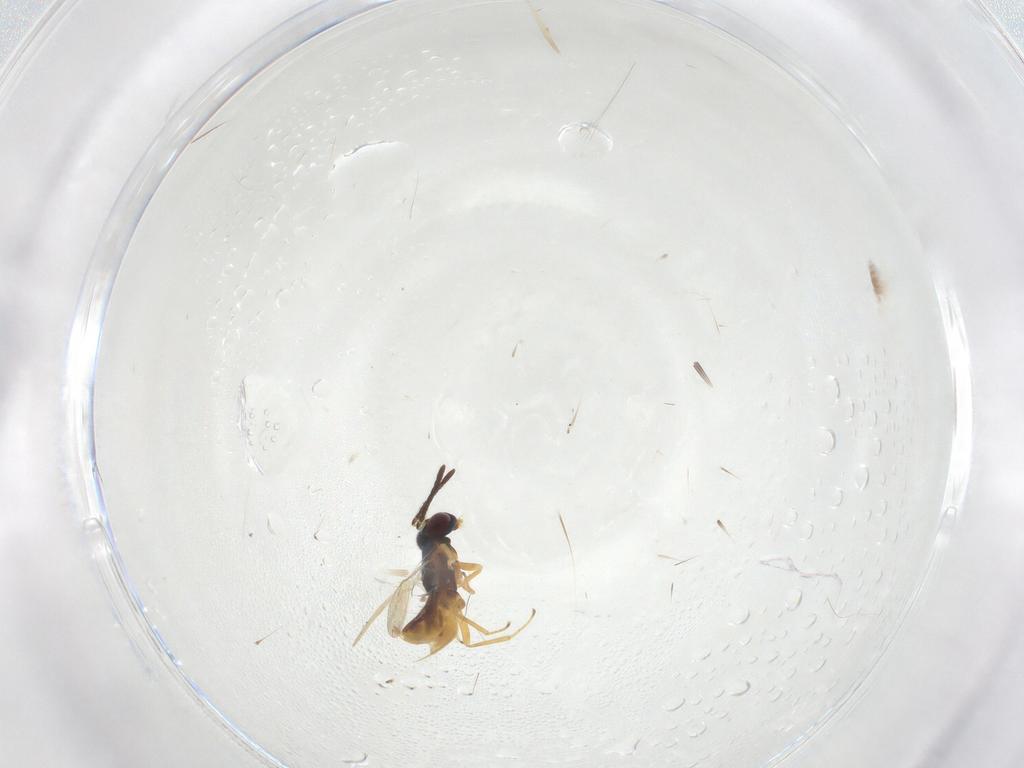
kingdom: Animalia
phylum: Arthropoda
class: Insecta
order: Hymenoptera
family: Encyrtidae
